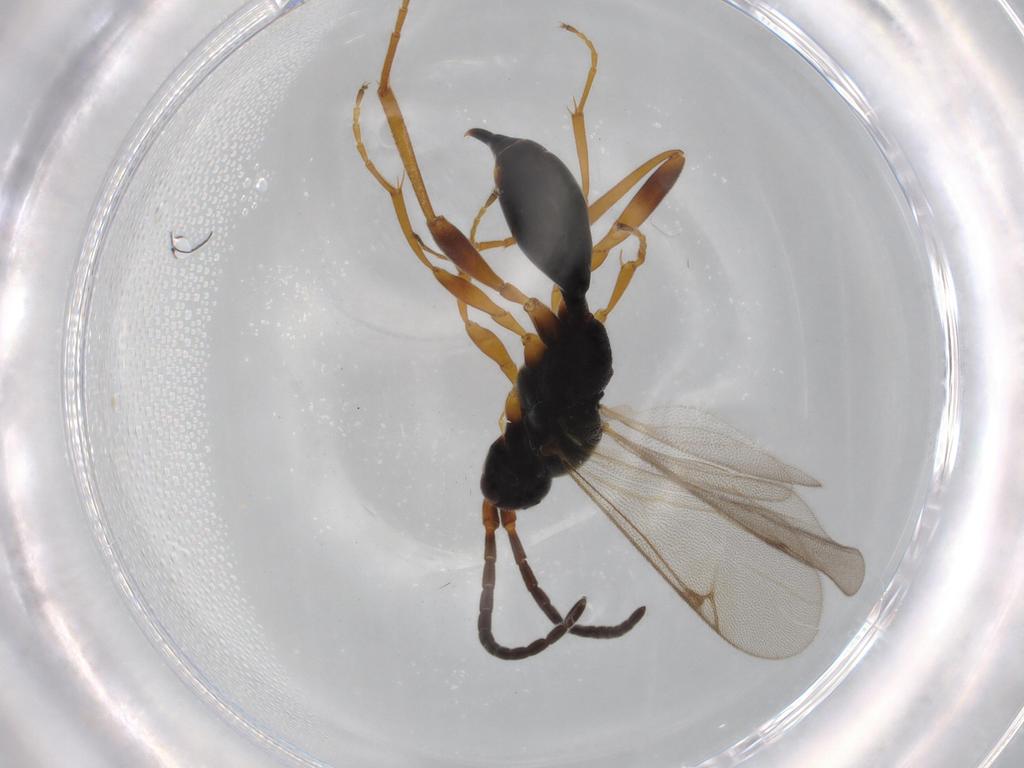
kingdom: Animalia
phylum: Arthropoda
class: Insecta
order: Hymenoptera
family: Proctotrupidae
